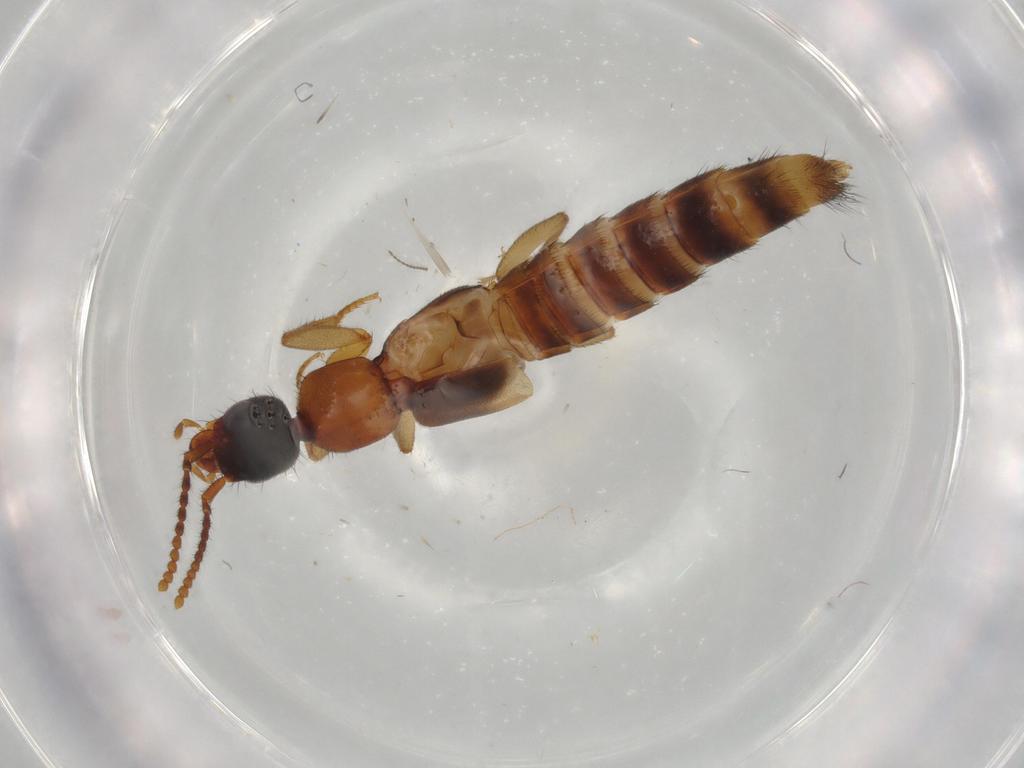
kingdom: Animalia
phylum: Arthropoda
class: Insecta
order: Coleoptera
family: Staphylinidae
